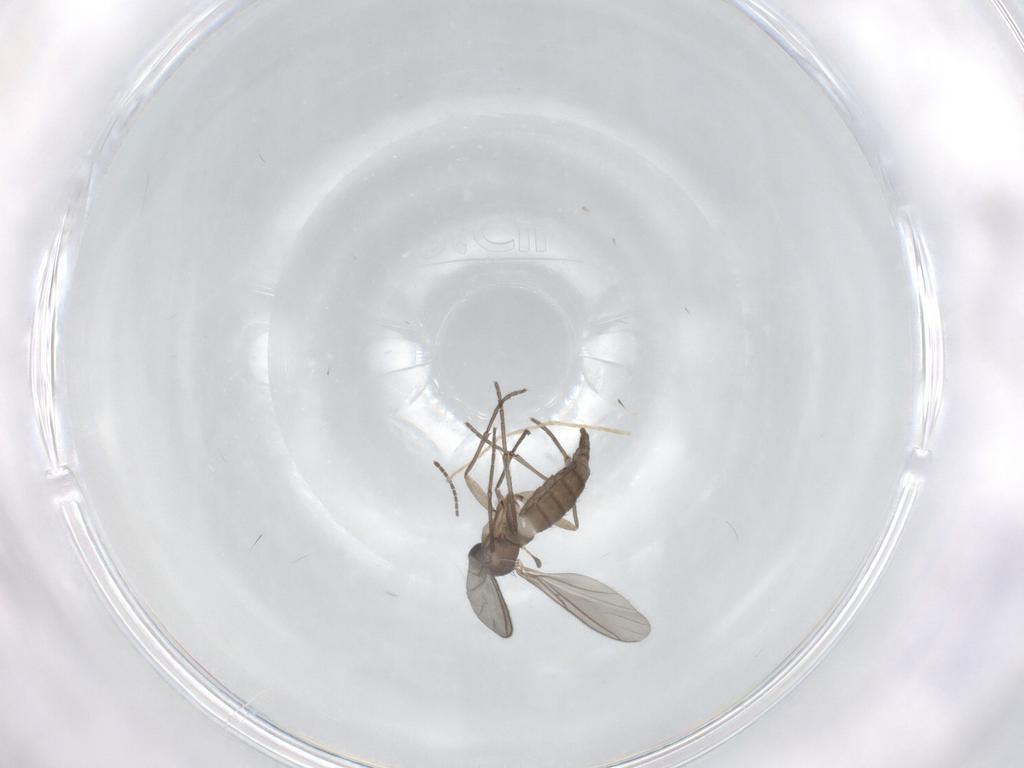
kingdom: Animalia
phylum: Arthropoda
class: Insecta
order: Diptera
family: Sciaridae
